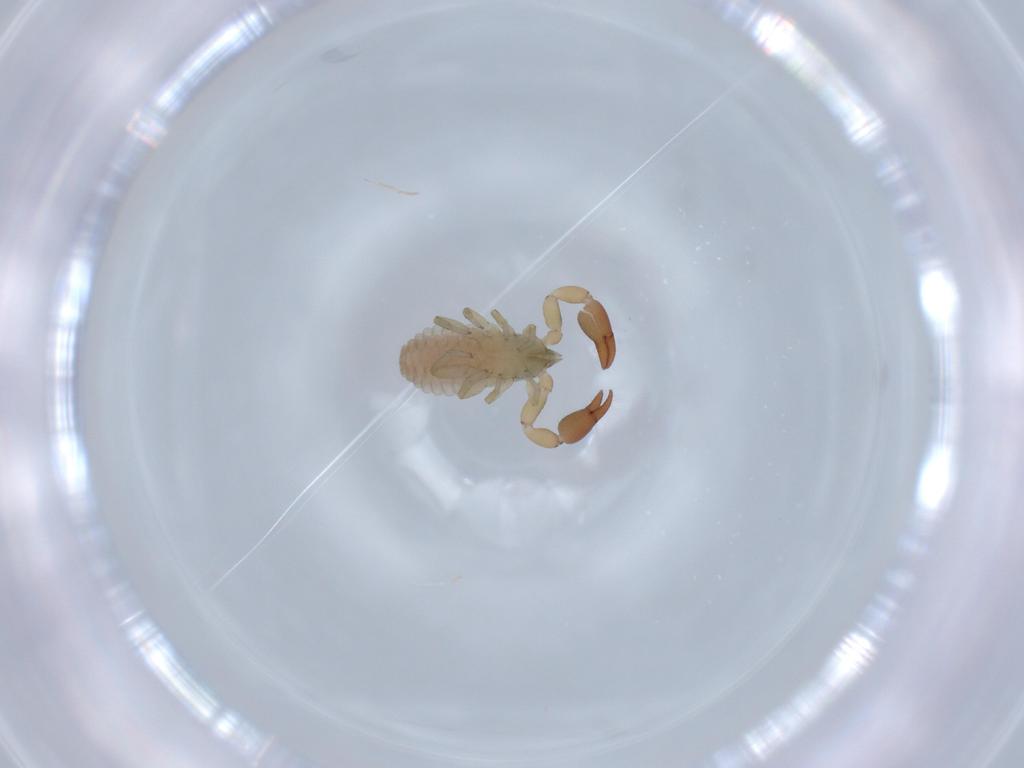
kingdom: Animalia
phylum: Arthropoda
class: Arachnida
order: Pseudoscorpiones
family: Chernetidae
